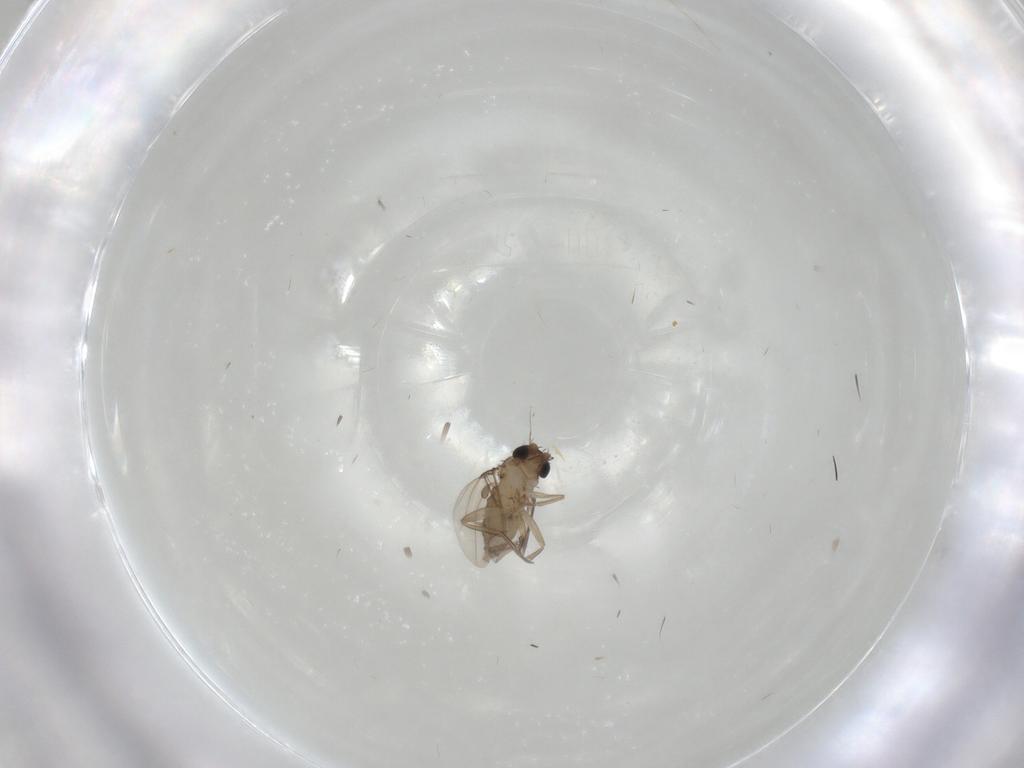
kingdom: Animalia
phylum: Arthropoda
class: Insecta
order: Diptera
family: Phoridae
